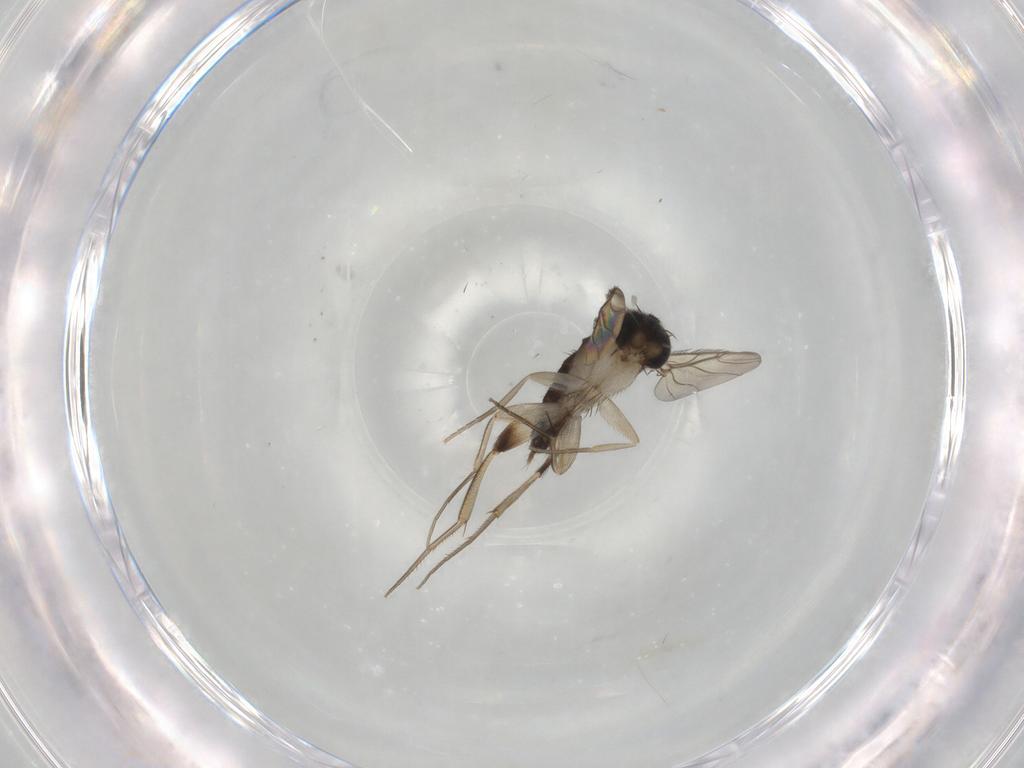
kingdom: Animalia
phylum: Arthropoda
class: Insecta
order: Diptera
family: Phoridae
